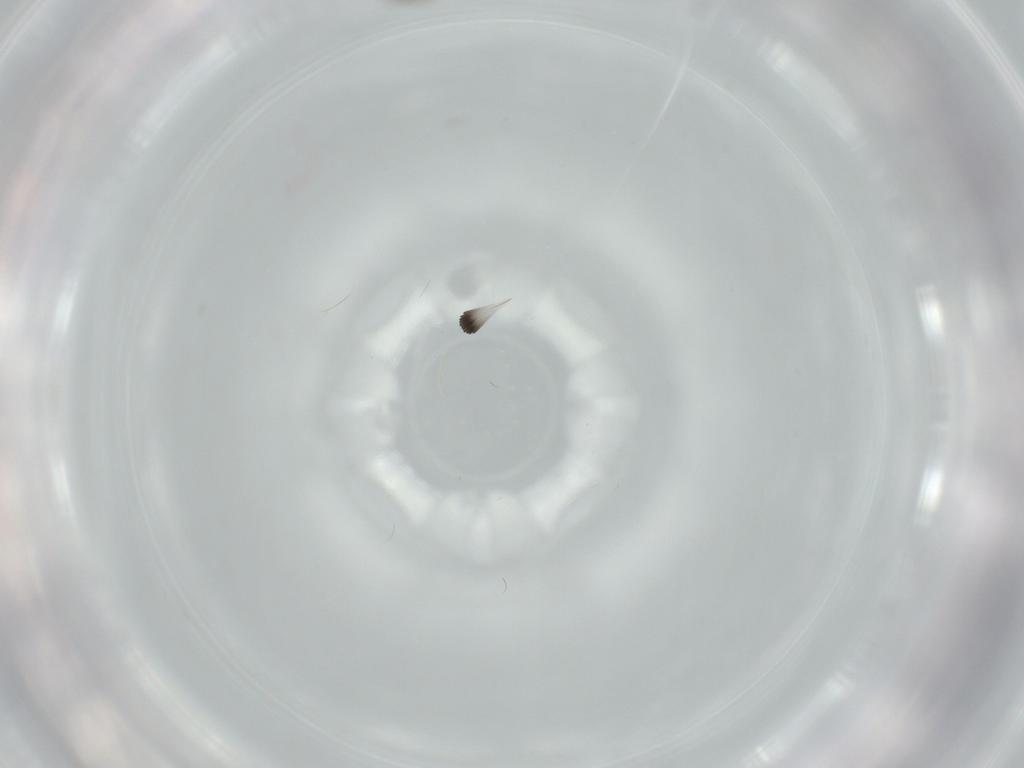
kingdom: Animalia
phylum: Arthropoda
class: Insecta
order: Diptera
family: Cecidomyiidae
